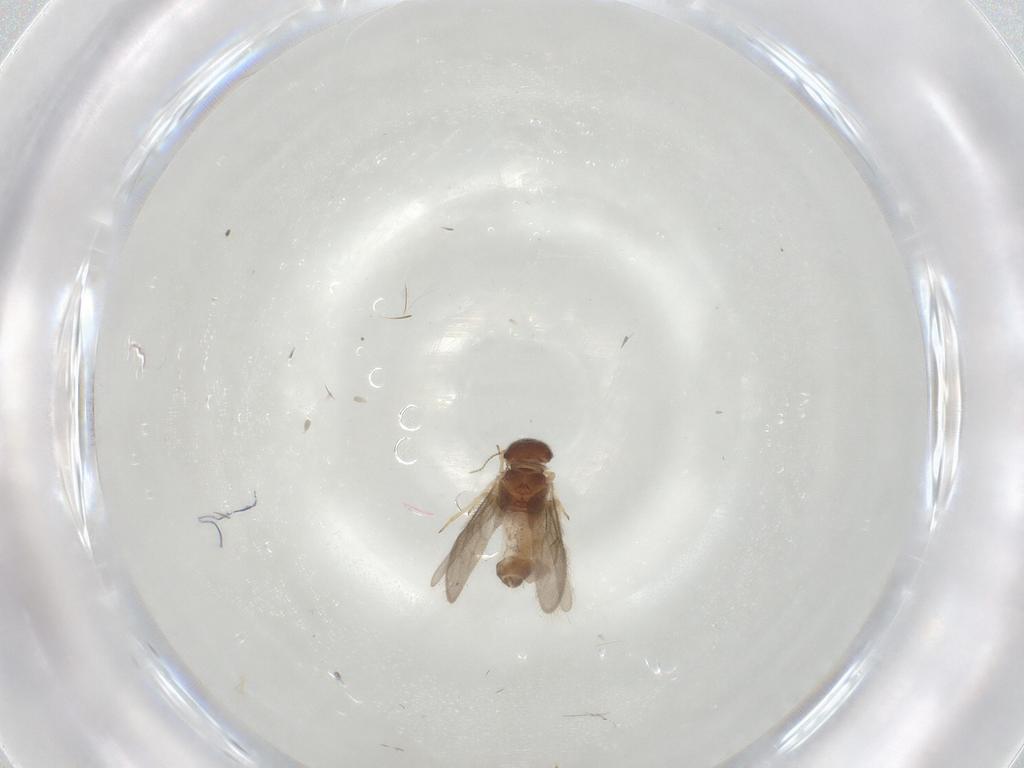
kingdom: Animalia
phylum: Arthropoda
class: Insecta
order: Psocodea
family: Archipsocidae
